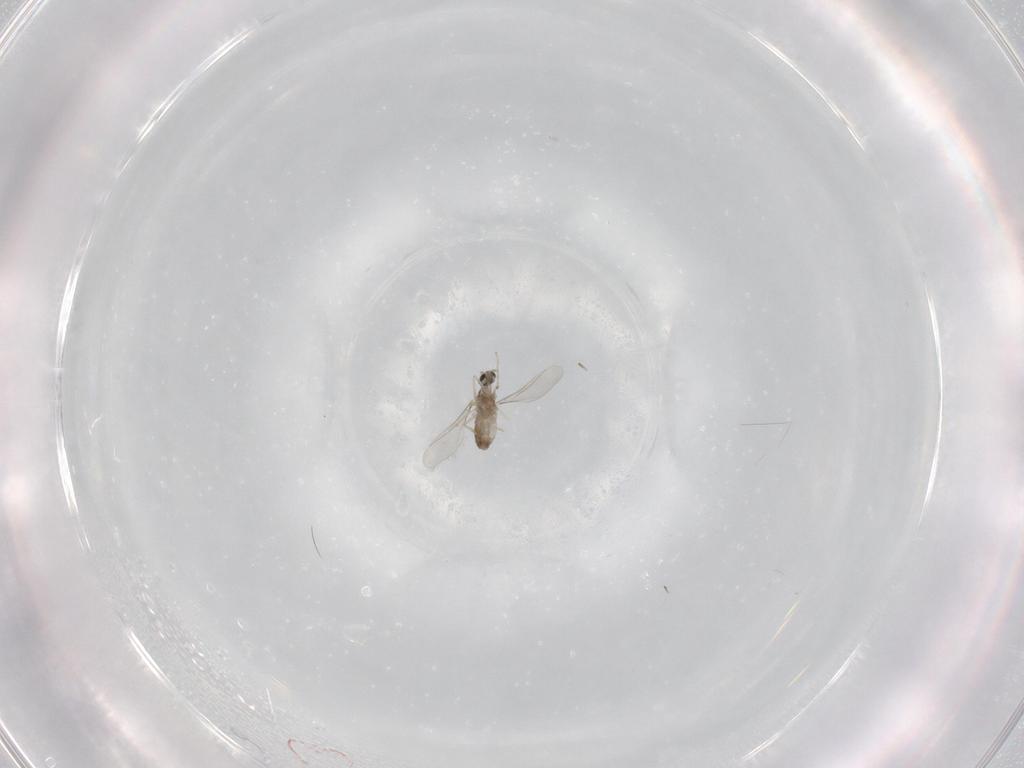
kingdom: Animalia
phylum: Arthropoda
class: Insecta
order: Diptera
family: Cecidomyiidae
